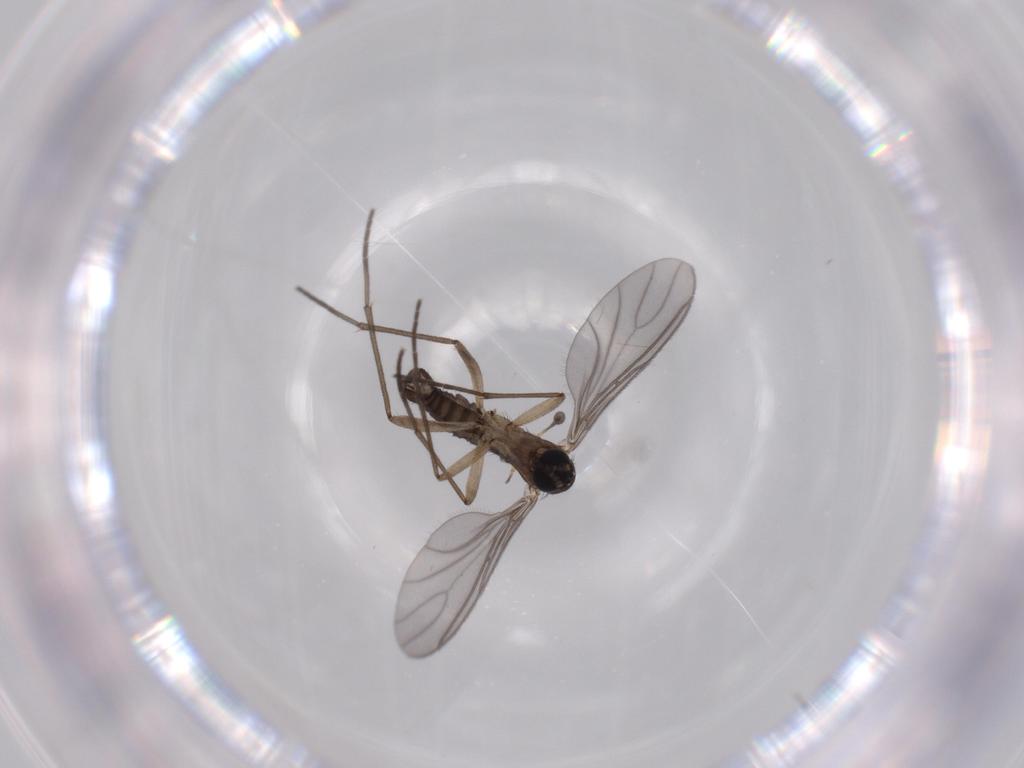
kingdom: Animalia
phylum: Arthropoda
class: Insecta
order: Diptera
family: Sciaridae
